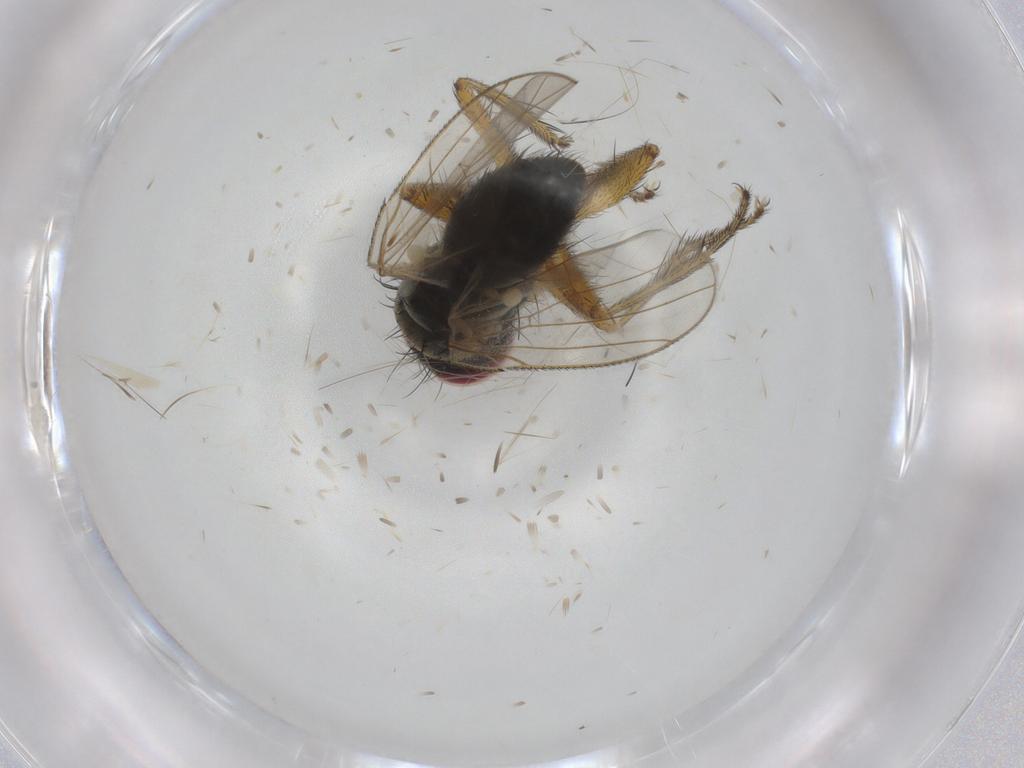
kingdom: Animalia
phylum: Arthropoda
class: Insecta
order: Diptera
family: Muscidae
